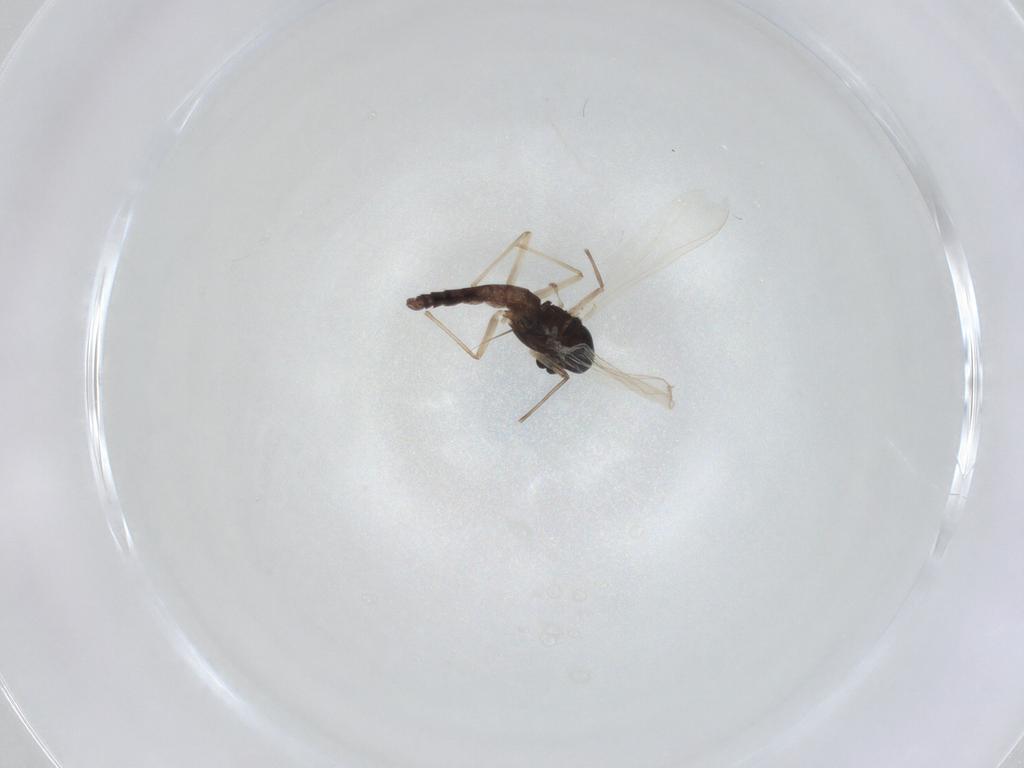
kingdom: Animalia
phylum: Arthropoda
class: Insecta
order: Diptera
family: Chironomidae
